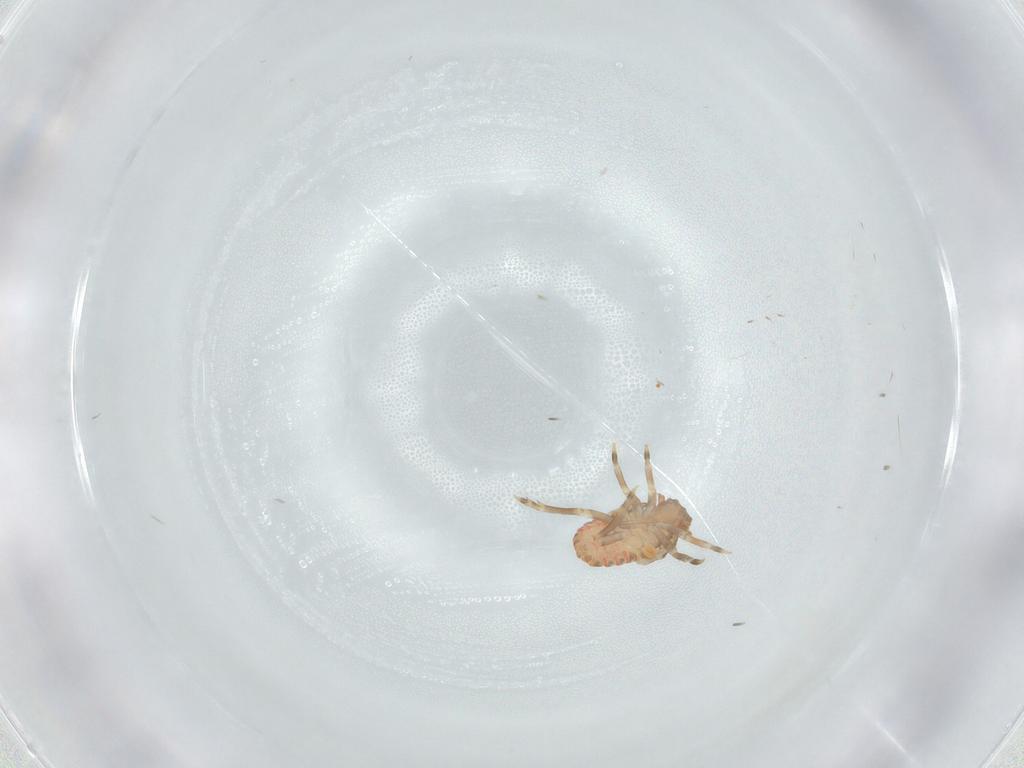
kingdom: Animalia
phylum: Arthropoda
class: Insecta
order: Hemiptera
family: Flatidae
